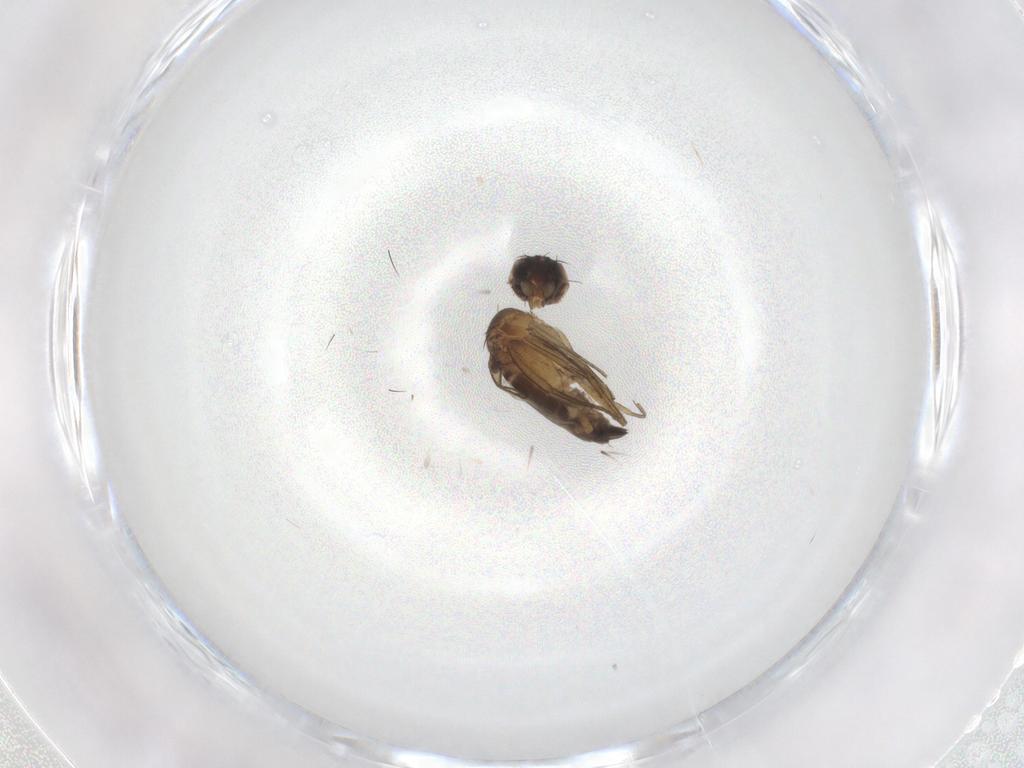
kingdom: Animalia
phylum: Arthropoda
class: Insecta
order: Diptera
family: Phoridae
